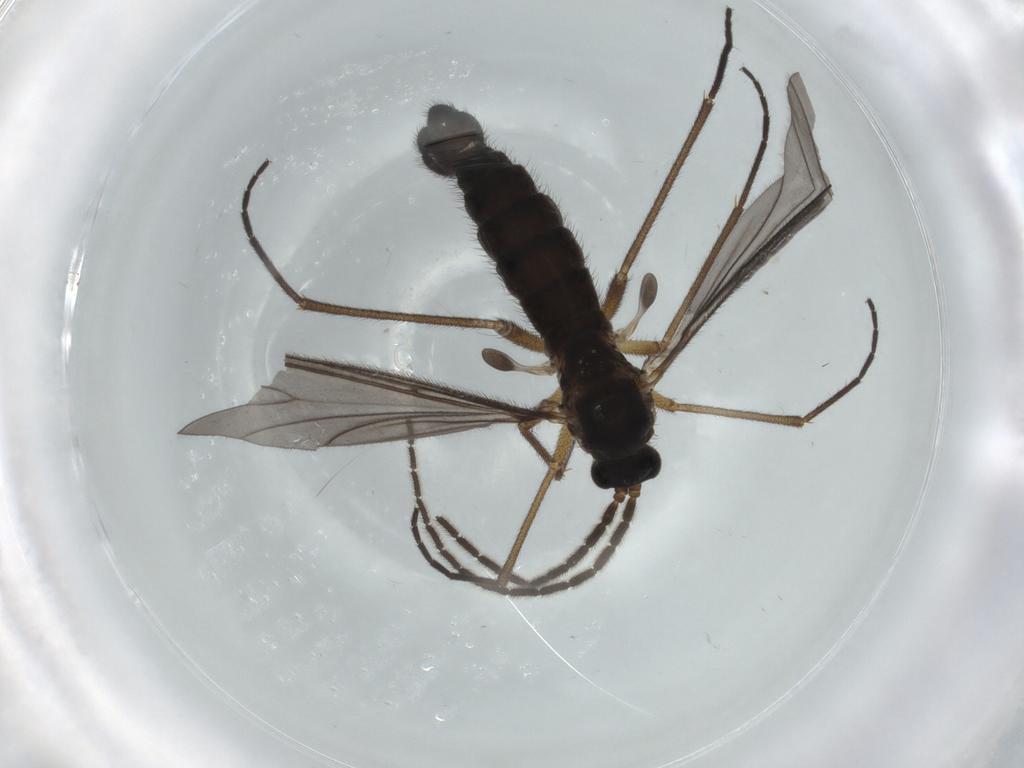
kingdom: Animalia
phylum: Arthropoda
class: Insecta
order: Diptera
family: Sciaridae
